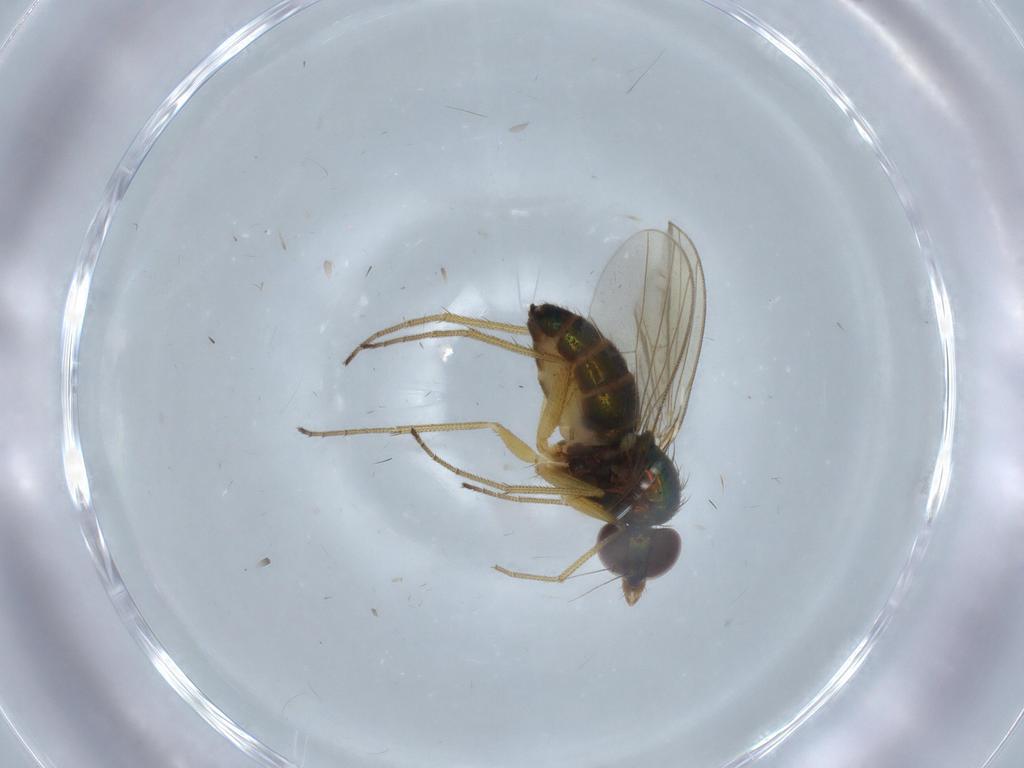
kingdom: Animalia
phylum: Arthropoda
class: Insecta
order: Diptera
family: Dolichopodidae
